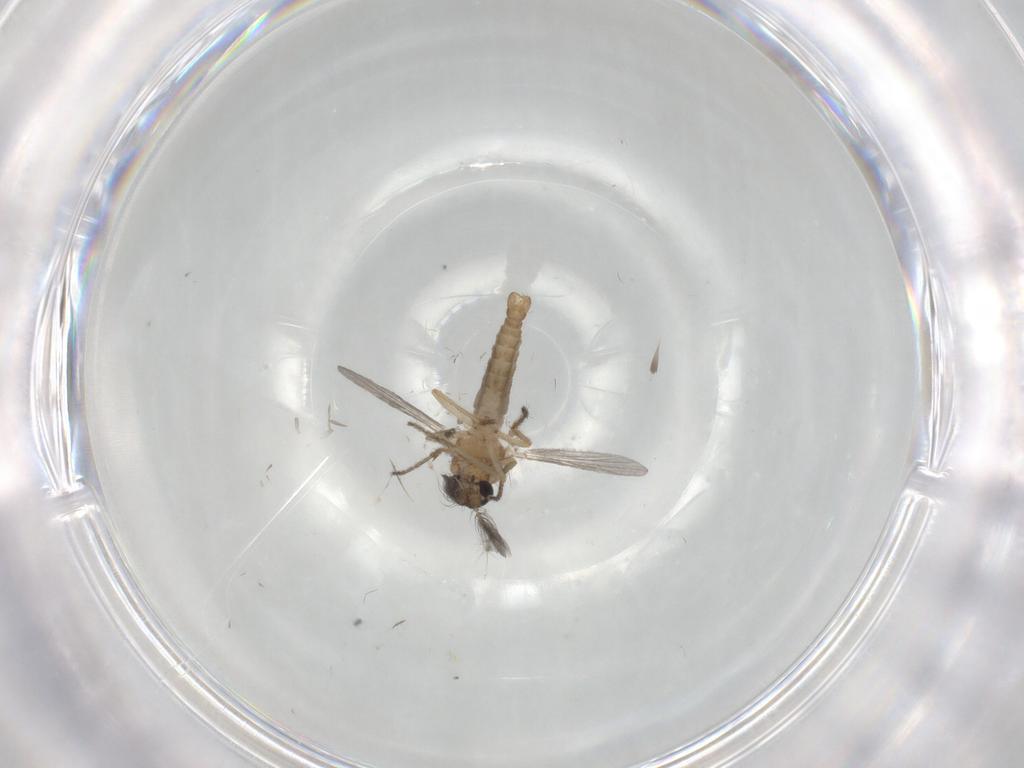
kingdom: Animalia
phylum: Arthropoda
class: Insecta
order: Diptera
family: Ceratopogonidae
